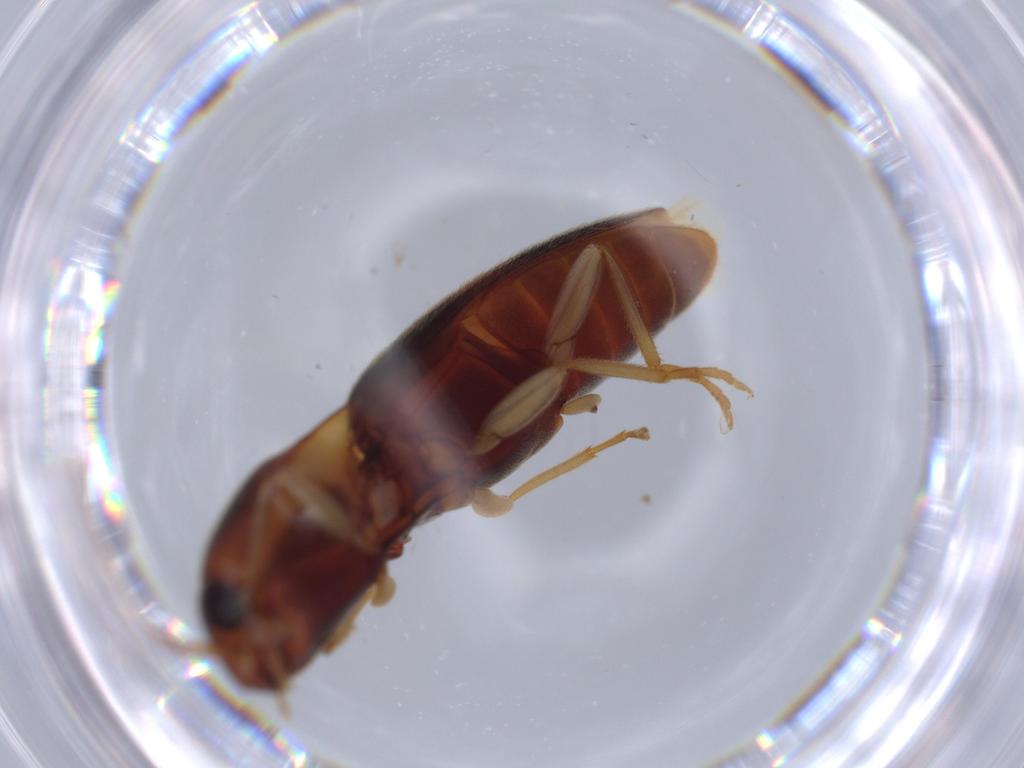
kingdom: Animalia
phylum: Arthropoda
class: Insecta
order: Coleoptera
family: Elateridae
